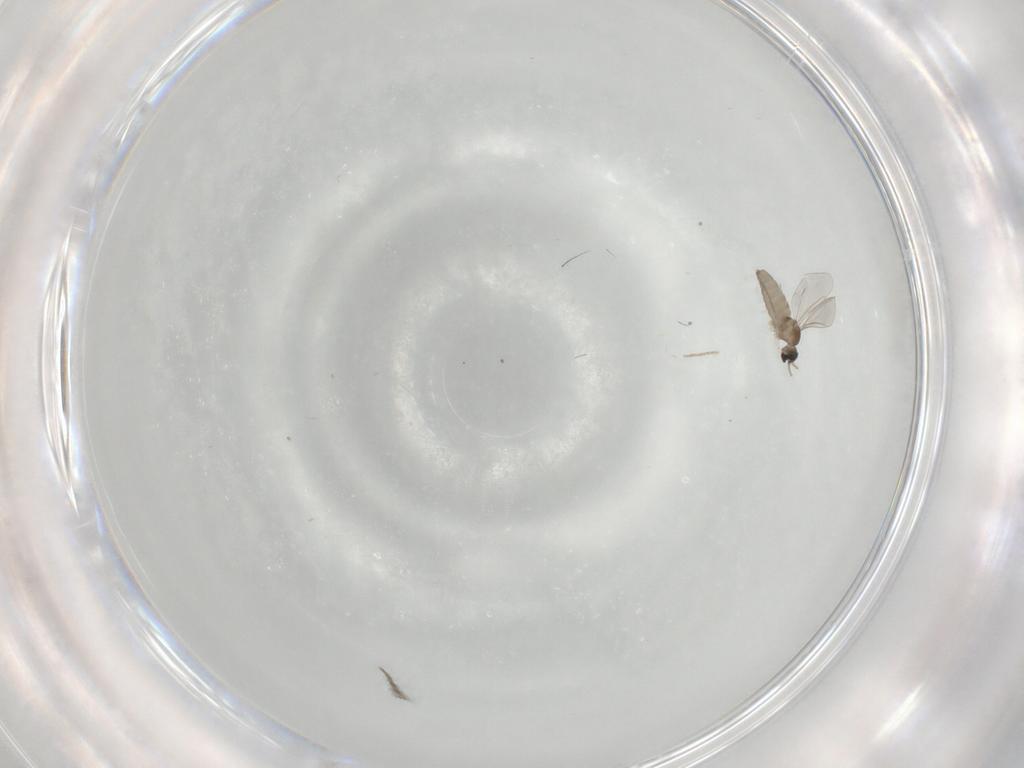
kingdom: Animalia
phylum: Arthropoda
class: Insecta
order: Diptera
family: Cecidomyiidae
